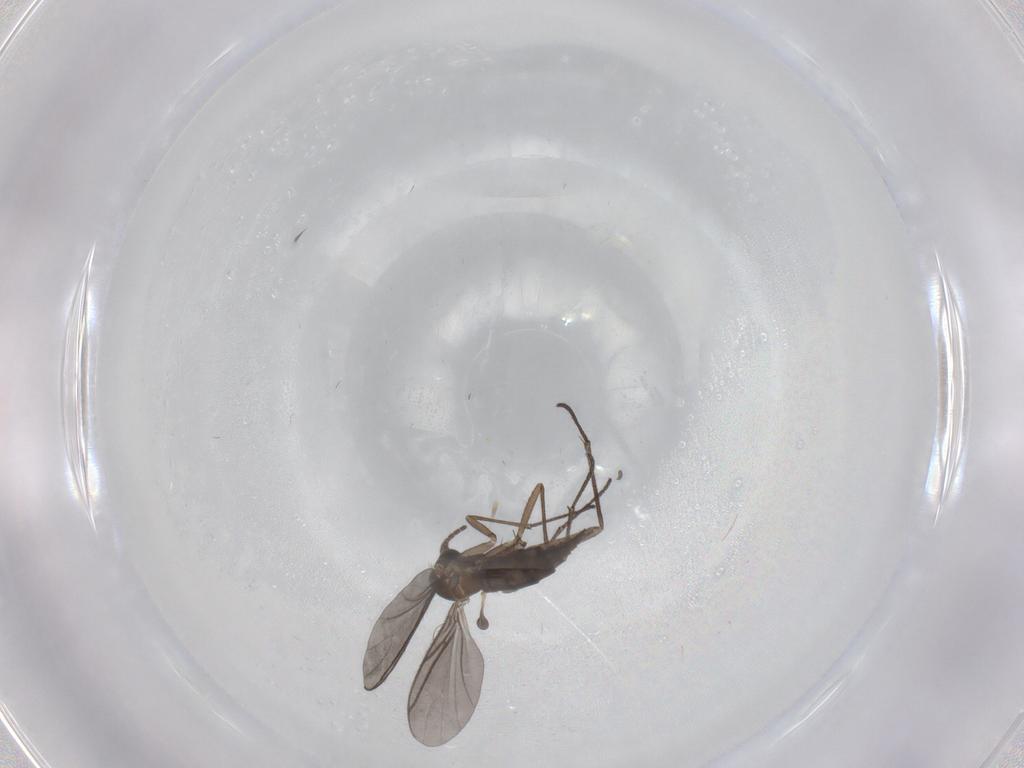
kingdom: Animalia
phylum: Arthropoda
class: Insecta
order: Diptera
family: Sciaridae
